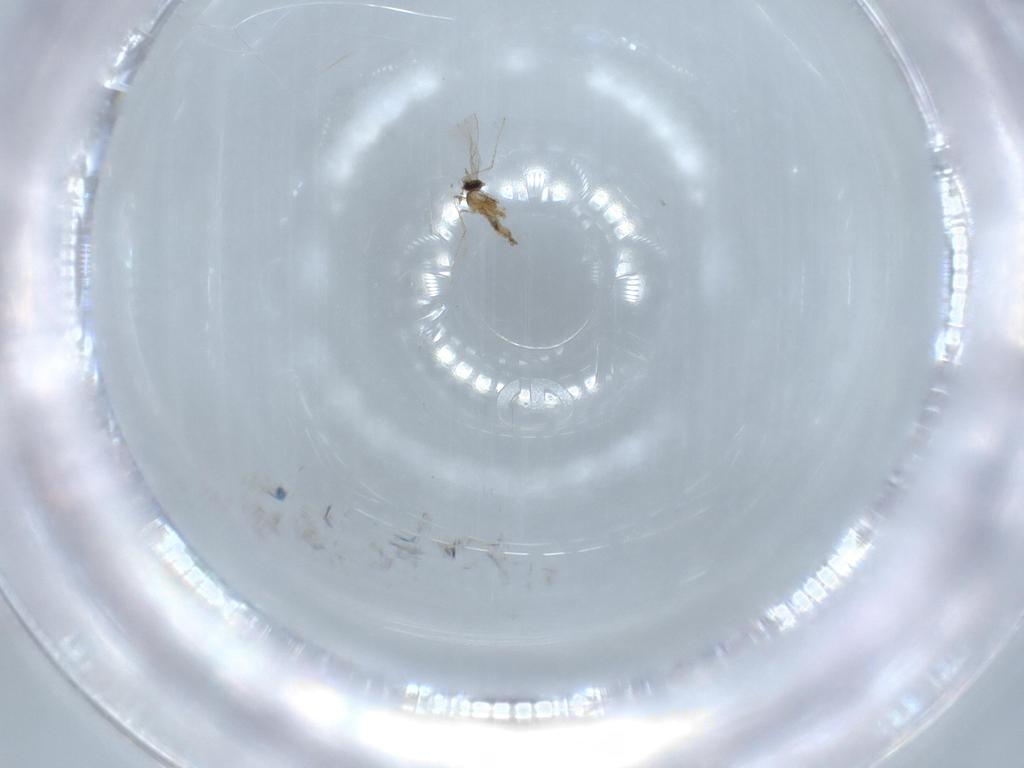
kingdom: Animalia
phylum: Arthropoda
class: Insecta
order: Diptera
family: Cecidomyiidae
